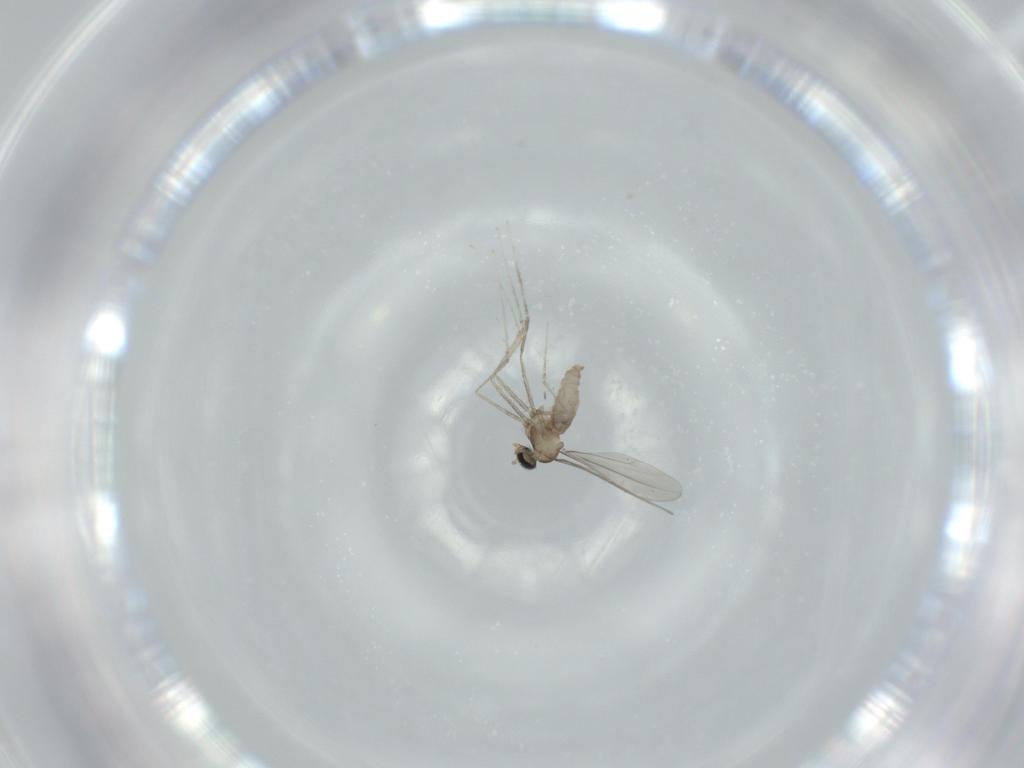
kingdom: Animalia
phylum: Arthropoda
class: Insecta
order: Diptera
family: Cecidomyiidae
